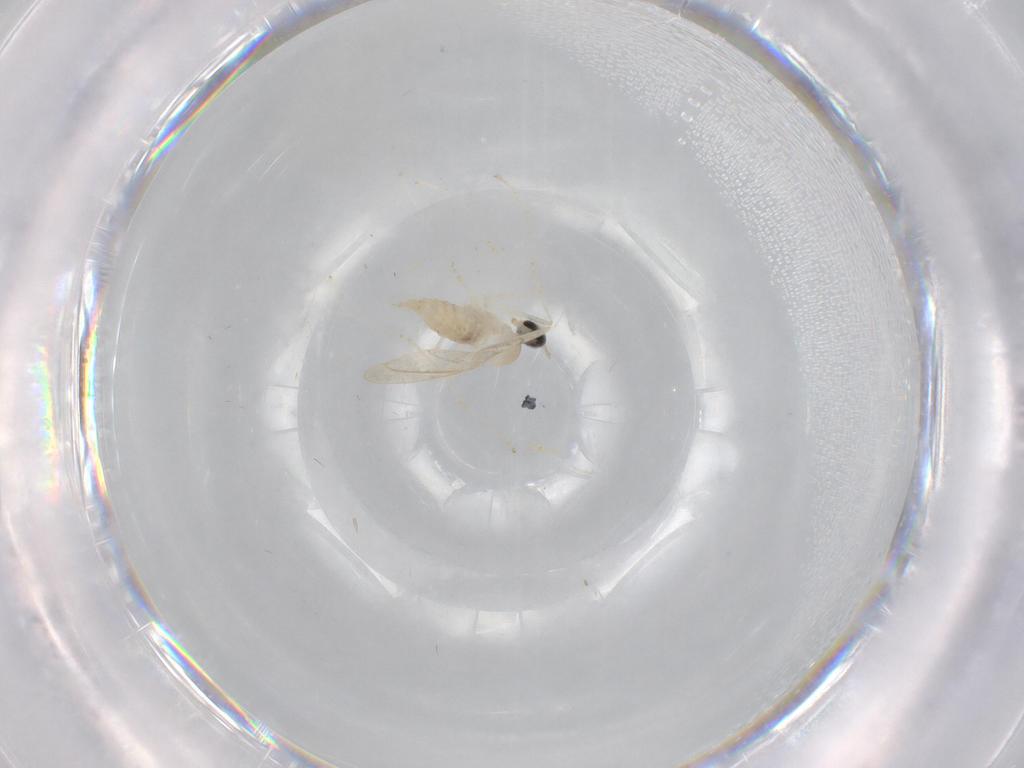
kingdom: Animalia
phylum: Arthropoda
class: Insecta
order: Diptera
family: Cecidomyiidae
